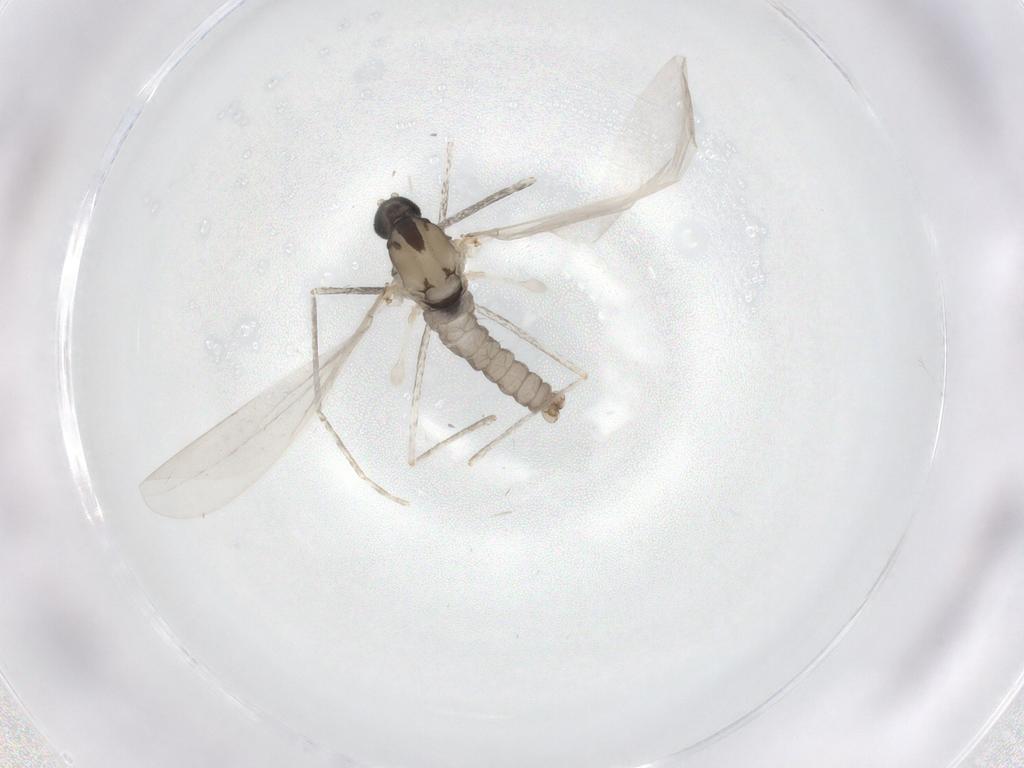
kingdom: Animalia
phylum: Arthropoda
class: Insecta
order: Diptera
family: Cecidomyiidae
